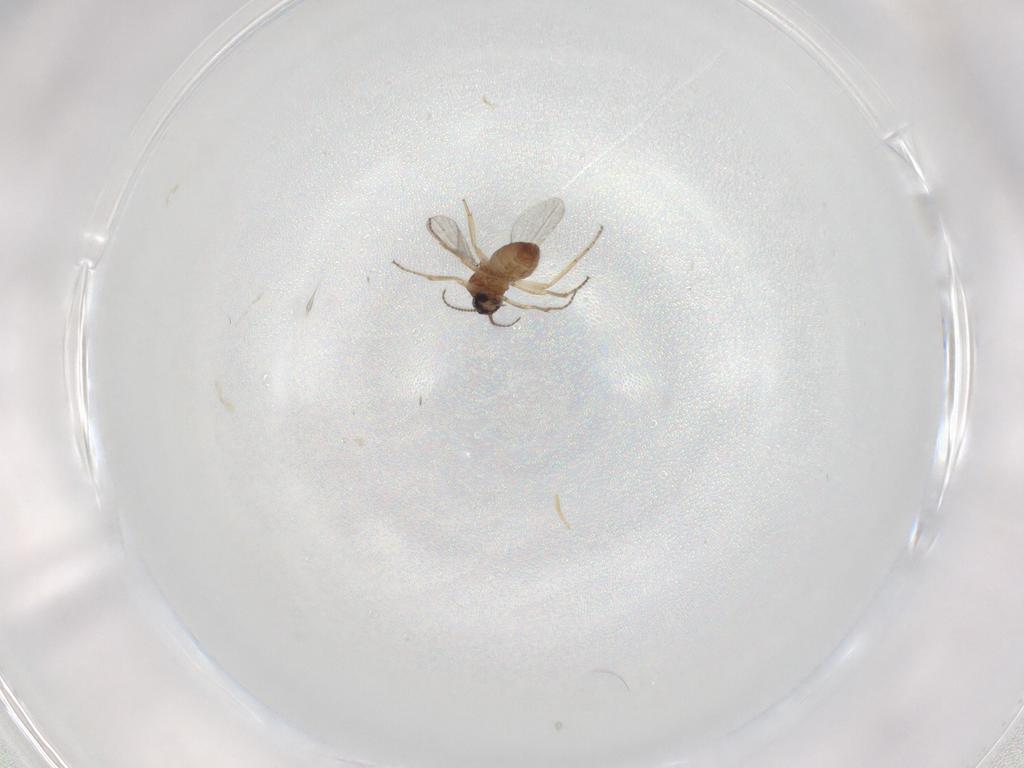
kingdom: Animalia
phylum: Arthropoda
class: Insecta
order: Diptera
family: Ceratopogonidae
